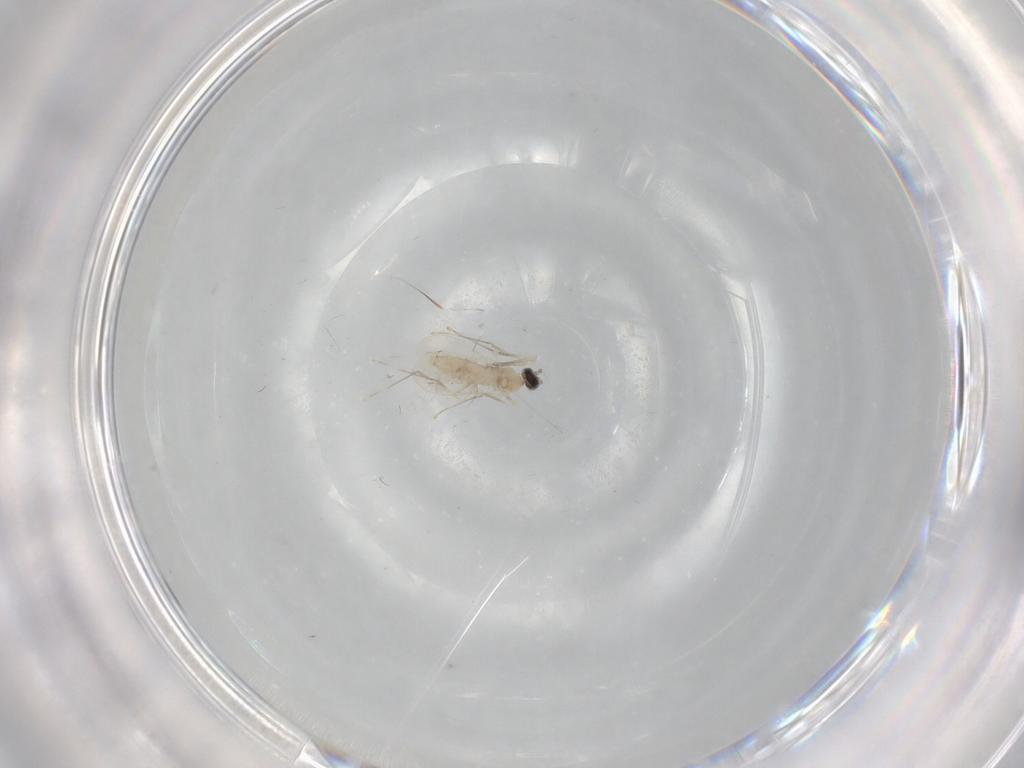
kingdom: Animalia
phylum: Arthropoda
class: Insecta
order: Diptera
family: Cecidomyiidae
